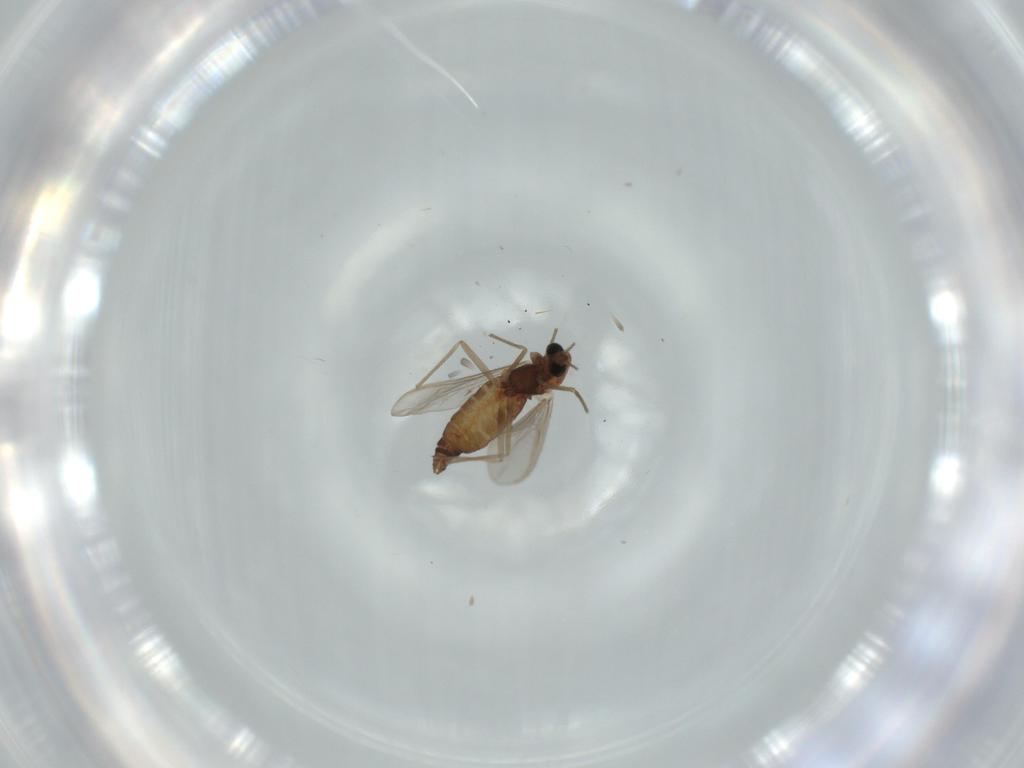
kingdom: Animalia
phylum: Arthropoda
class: Insecta
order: Diptera
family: Chironomidae
